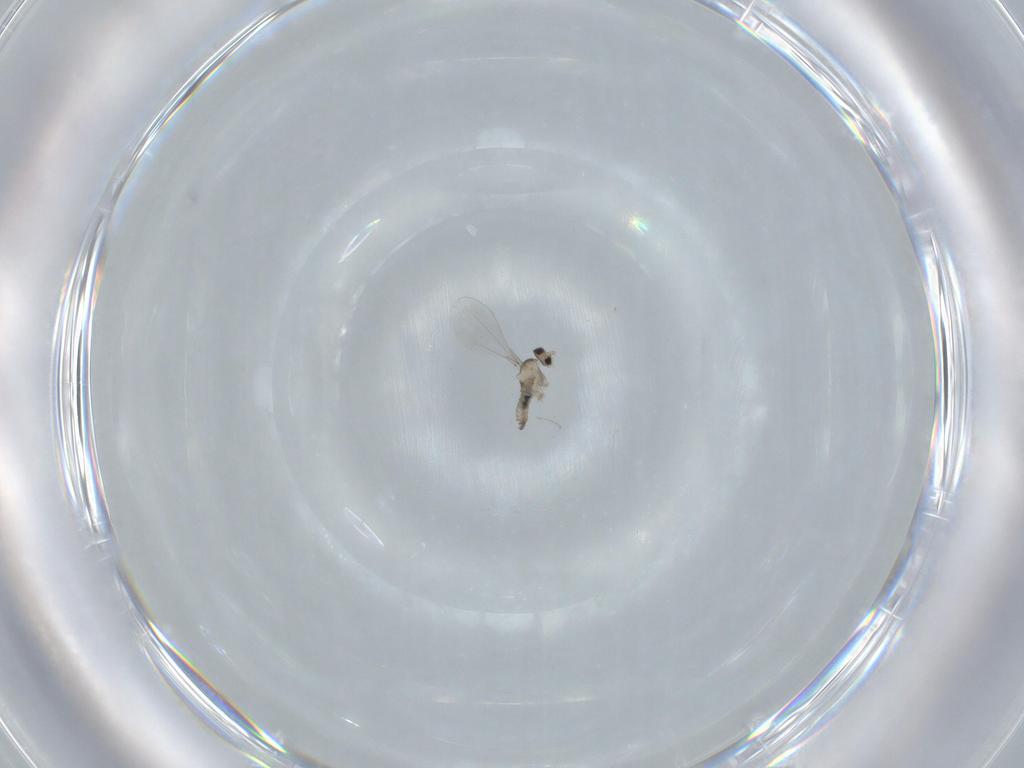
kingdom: Animalia
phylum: Arthropoda
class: Insecta
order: Diptera
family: Cecidomyiidae
